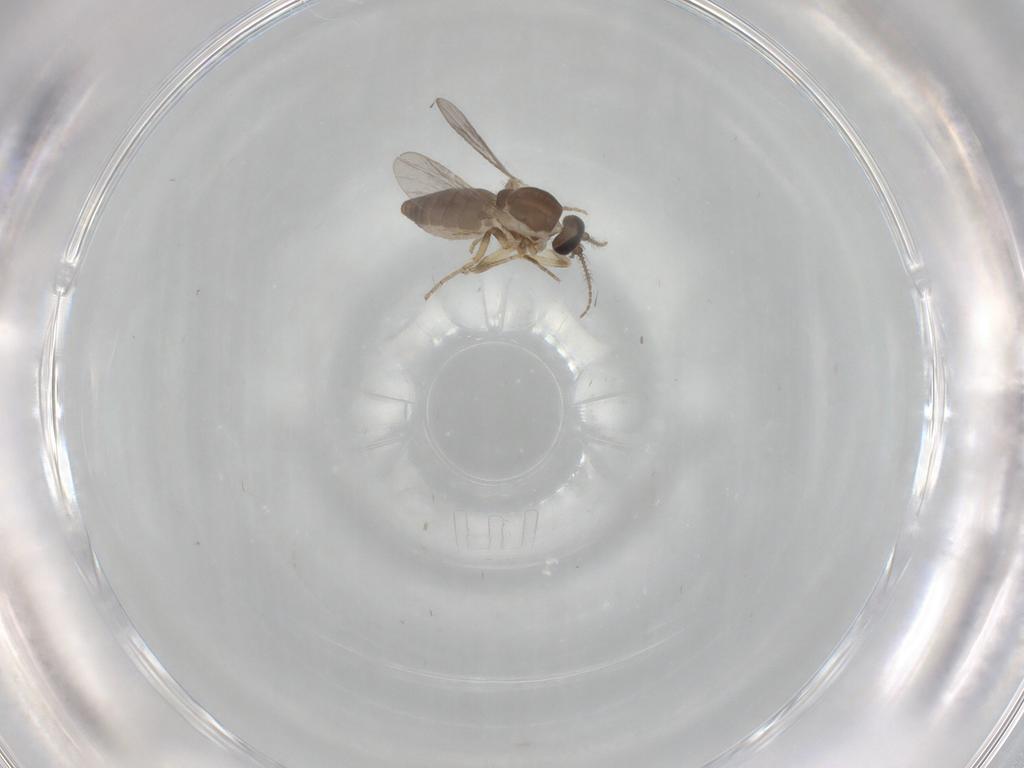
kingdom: Animalia
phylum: Arthropoda
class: Insecta
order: Diptera
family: Ceratopogonidae
